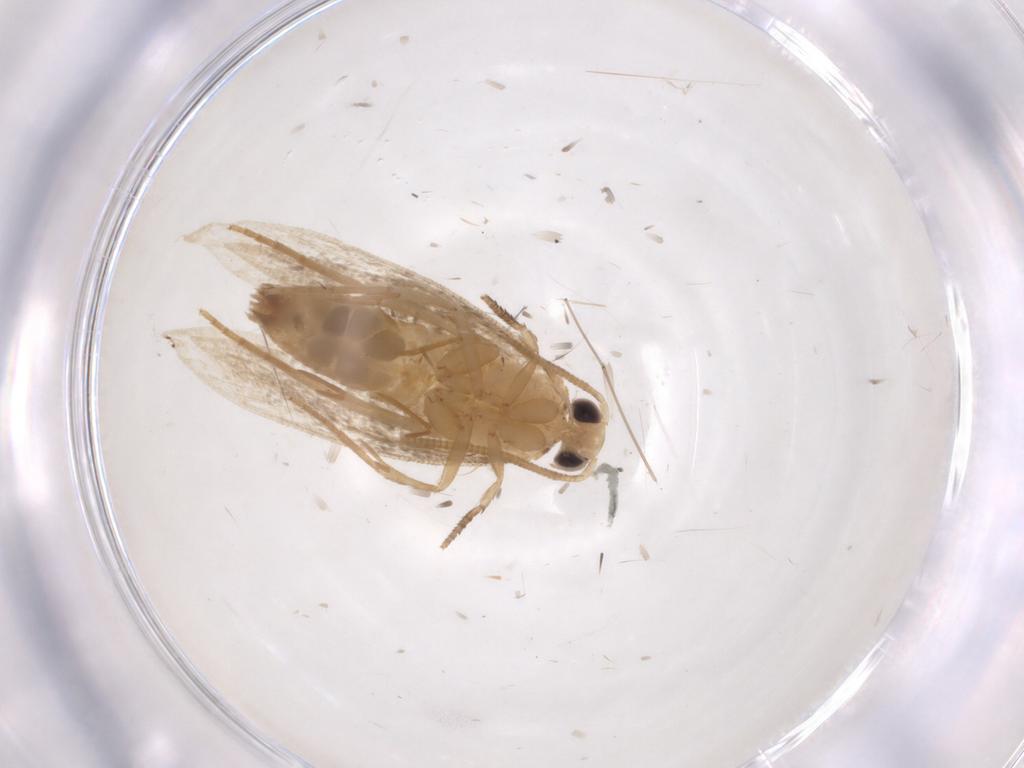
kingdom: Animalia
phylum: Arthropoda
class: Insecta
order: Lepidoptera
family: Tineidae
